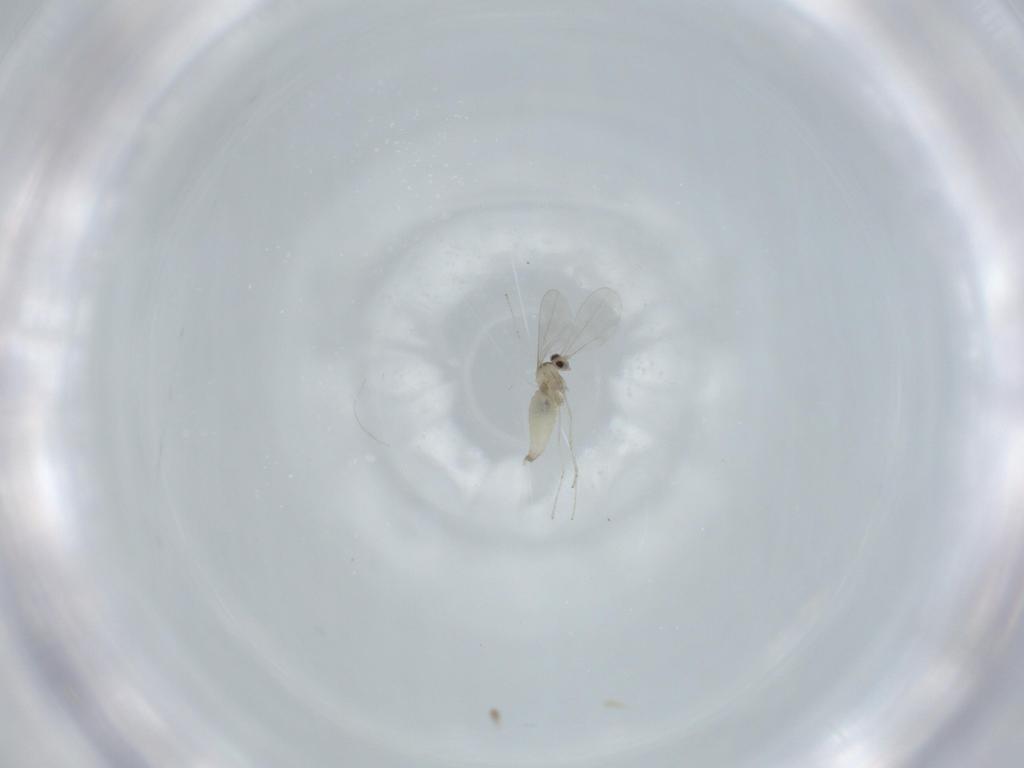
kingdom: Animalia
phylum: Arthropoda
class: Insecta
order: Diptera
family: Cecidomyiidae
